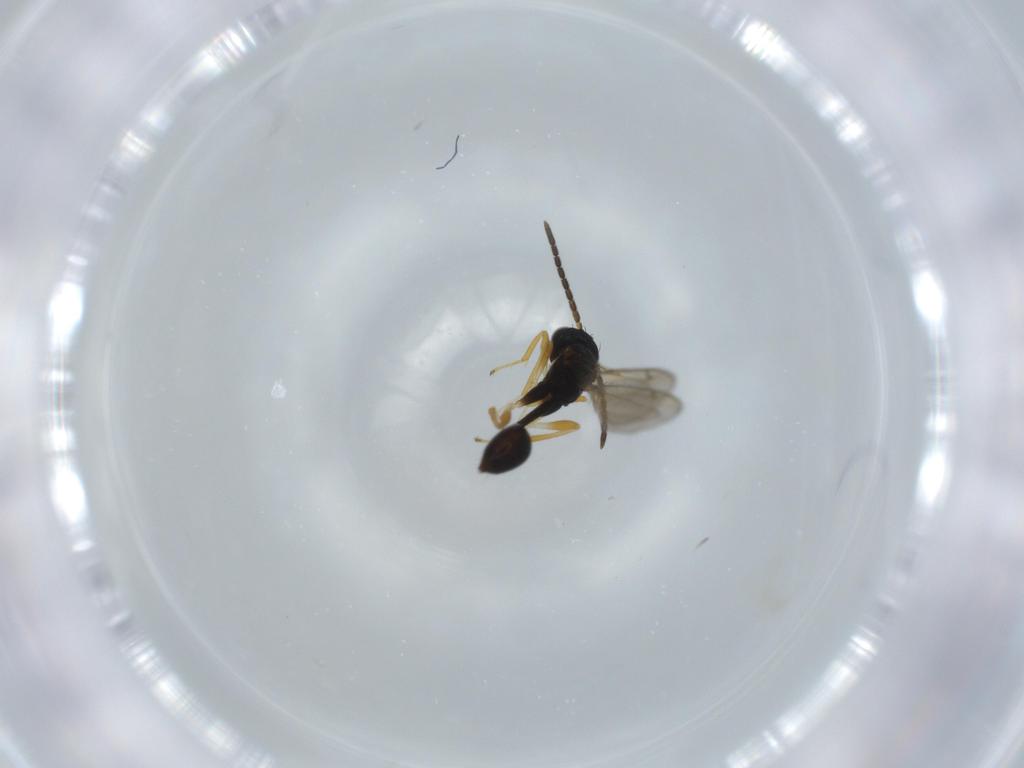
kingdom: Animalia
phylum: Arthropoda
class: Insecta
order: Hymenoptera
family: Diparidae
